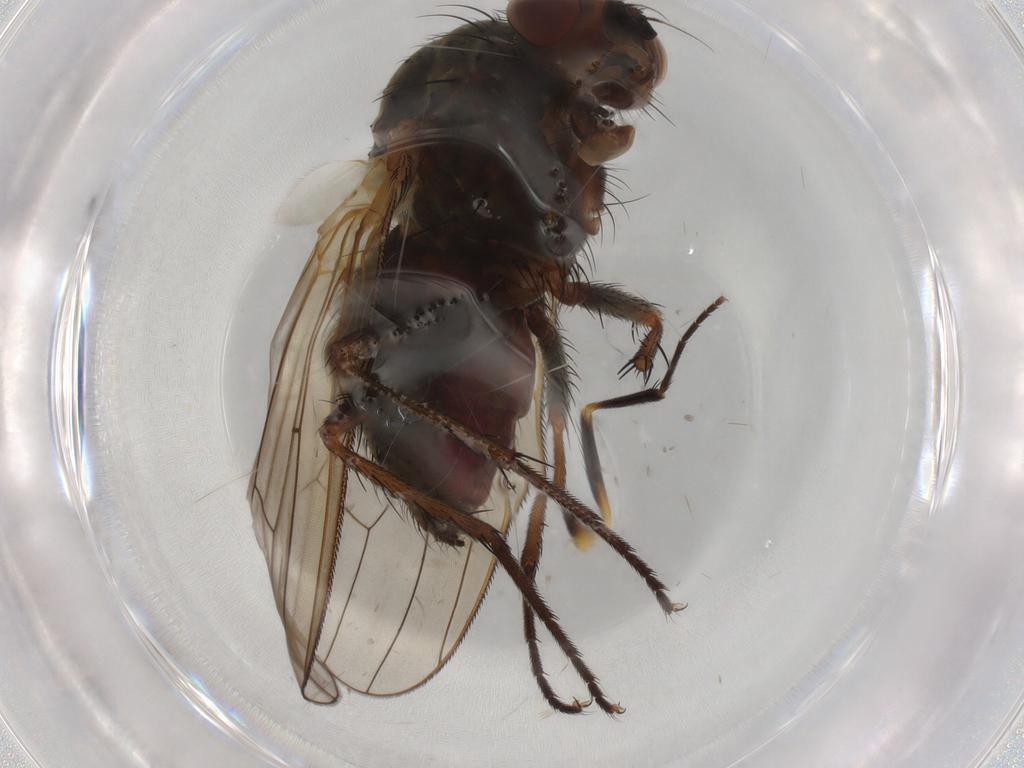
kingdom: Animalia
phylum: Arthropoda
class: Insecta
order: Diptera
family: Anthomyiidae
